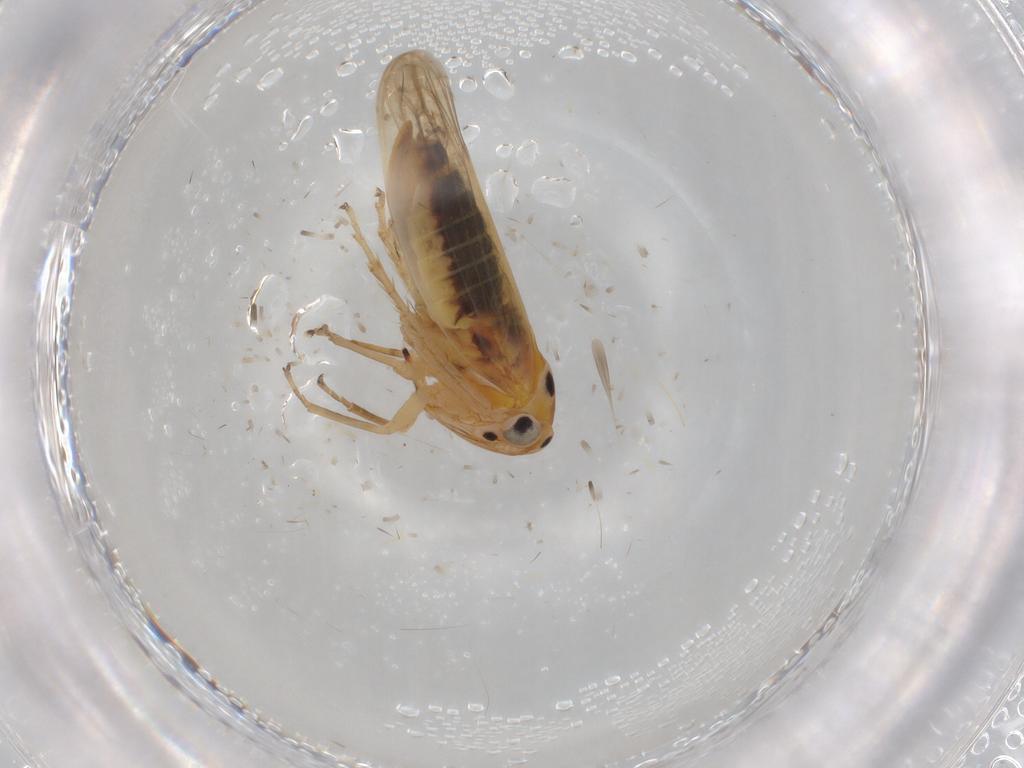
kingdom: Animalia
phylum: Arthropoda
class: Insecta
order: Hemiptera
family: Cicadellidae
